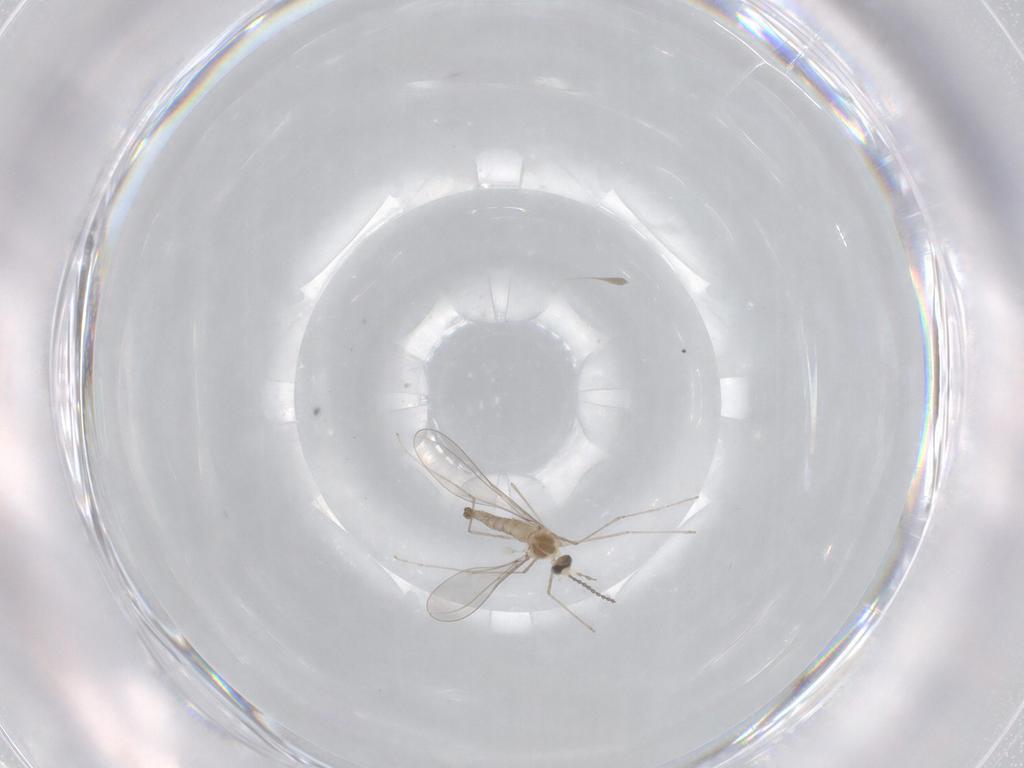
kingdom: Animalia
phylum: Arthropoda
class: Insecta
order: Diptera
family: Cecidomyiidae
